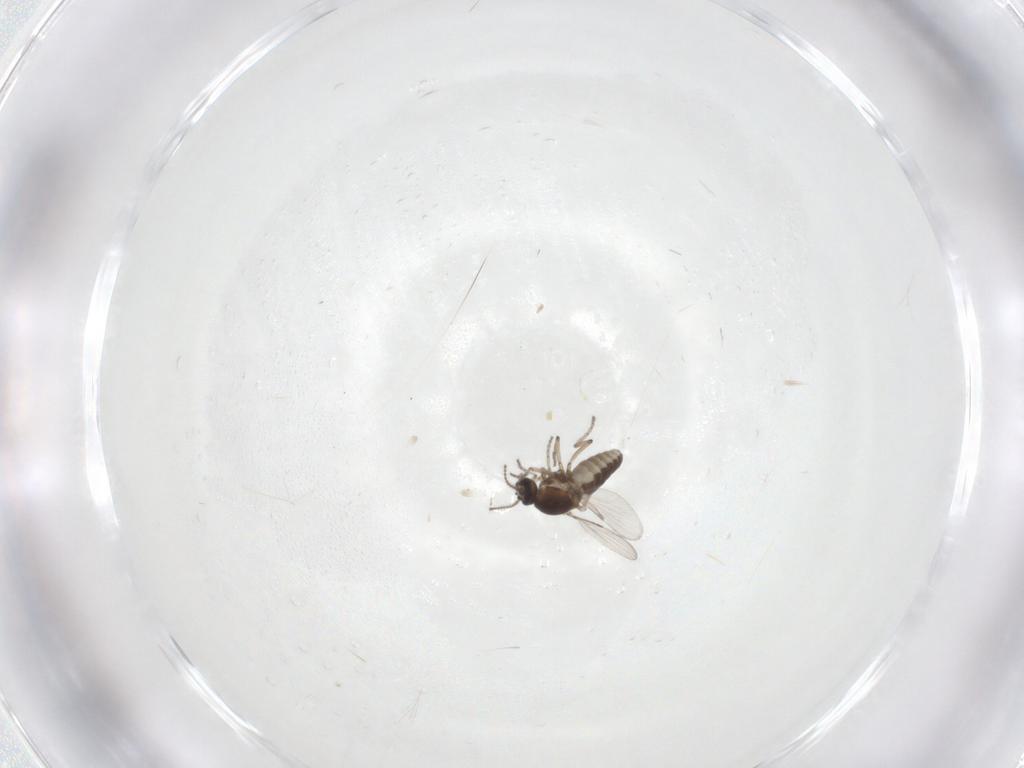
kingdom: Animalia
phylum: Arthropoda
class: Insecta
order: Diptera
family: Ceratopogonidae
